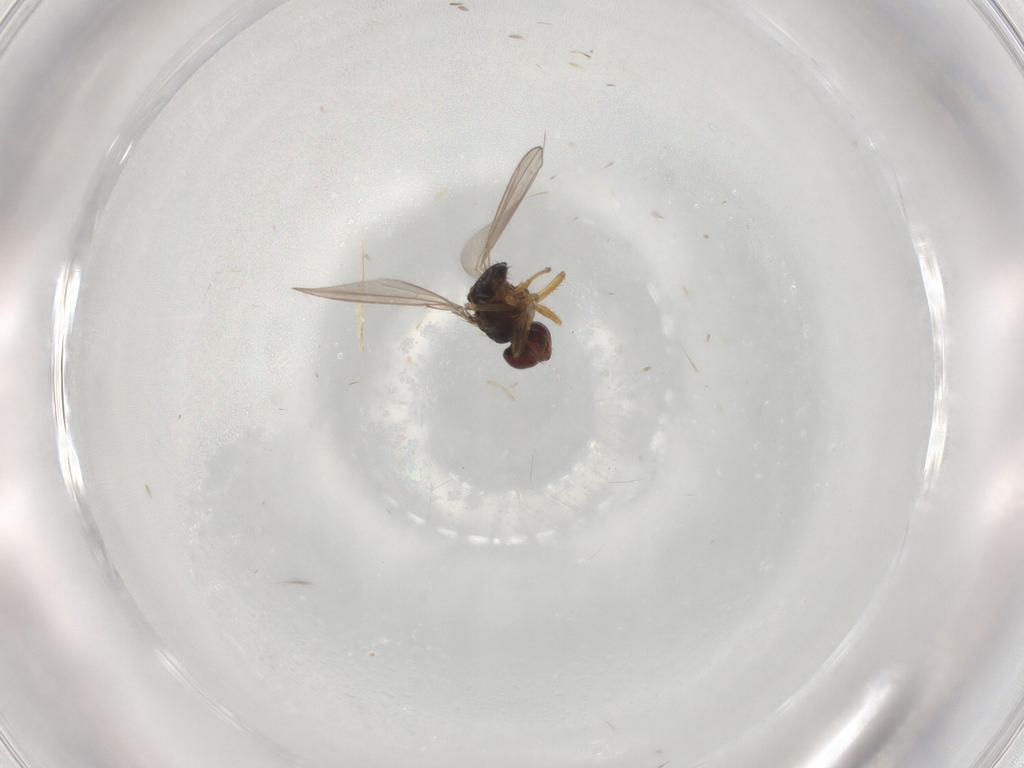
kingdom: Animalia
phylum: Arthropoda
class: Insecta
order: Diptera
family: Ephydridae
